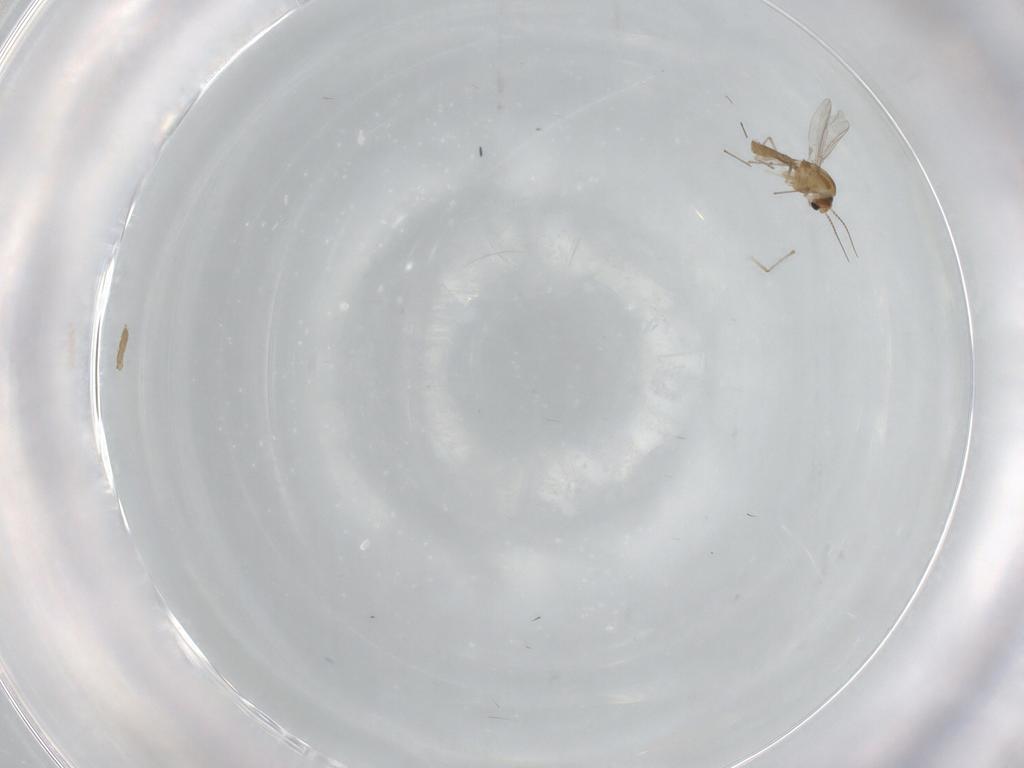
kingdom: Animalia
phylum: Arthropoda
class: Insecta
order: Diptera
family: Chironomidae
